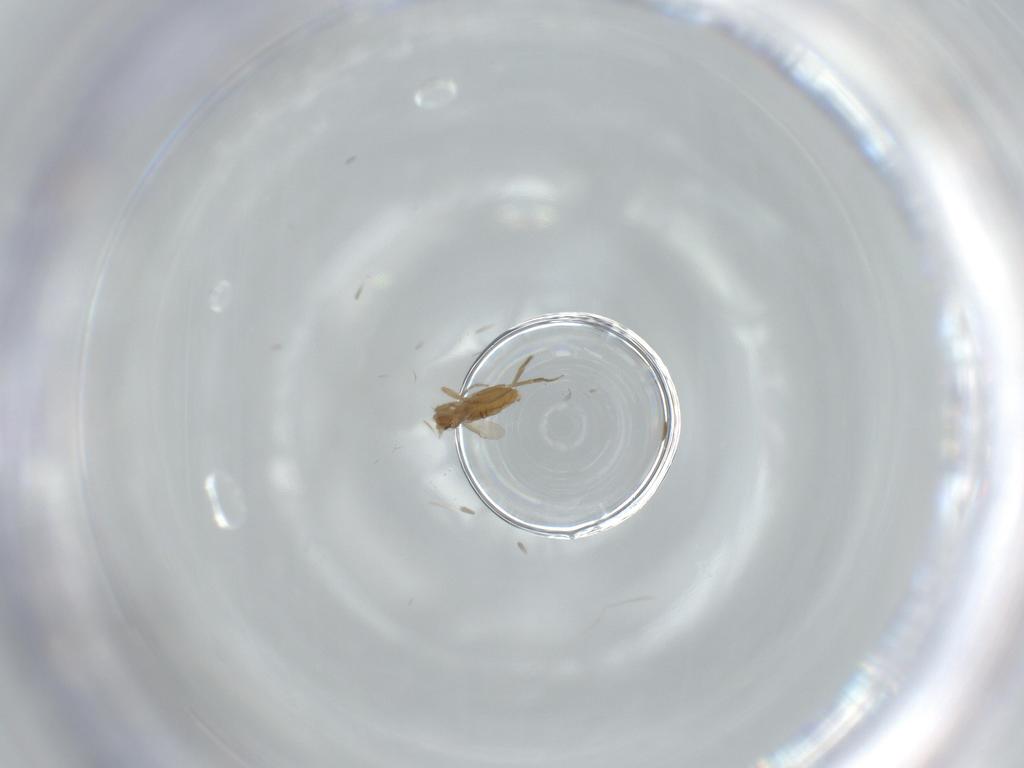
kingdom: Animalia
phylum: Arthropoda
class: Insecta
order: Diptera
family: Phoridae
